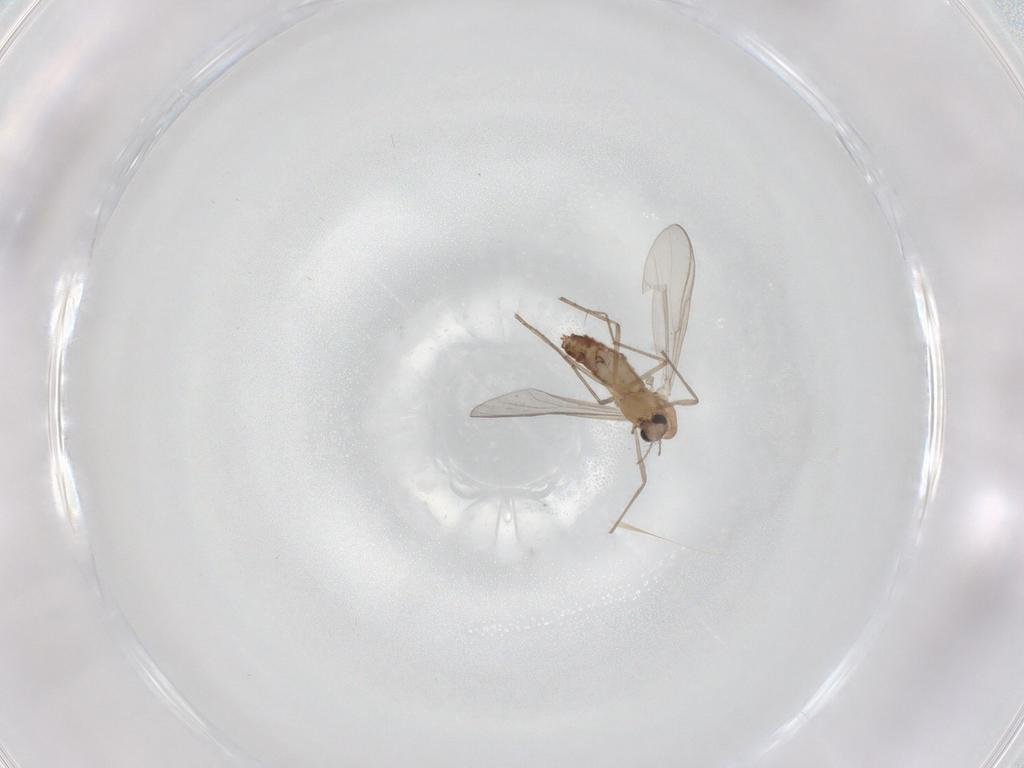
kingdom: Animalia
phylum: Arthropoda
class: Insecta
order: Diptera
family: Chironomidae
